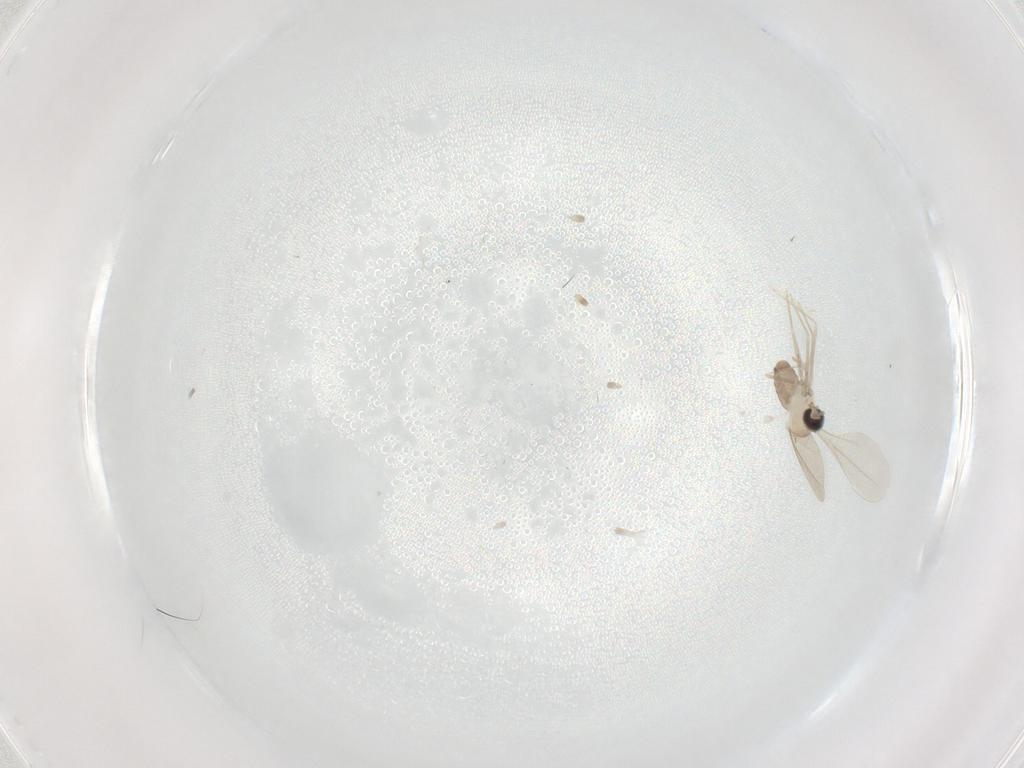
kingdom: Animalia
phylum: Arthropoda
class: Insecta
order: Diptera
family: Cecidomyiidae
